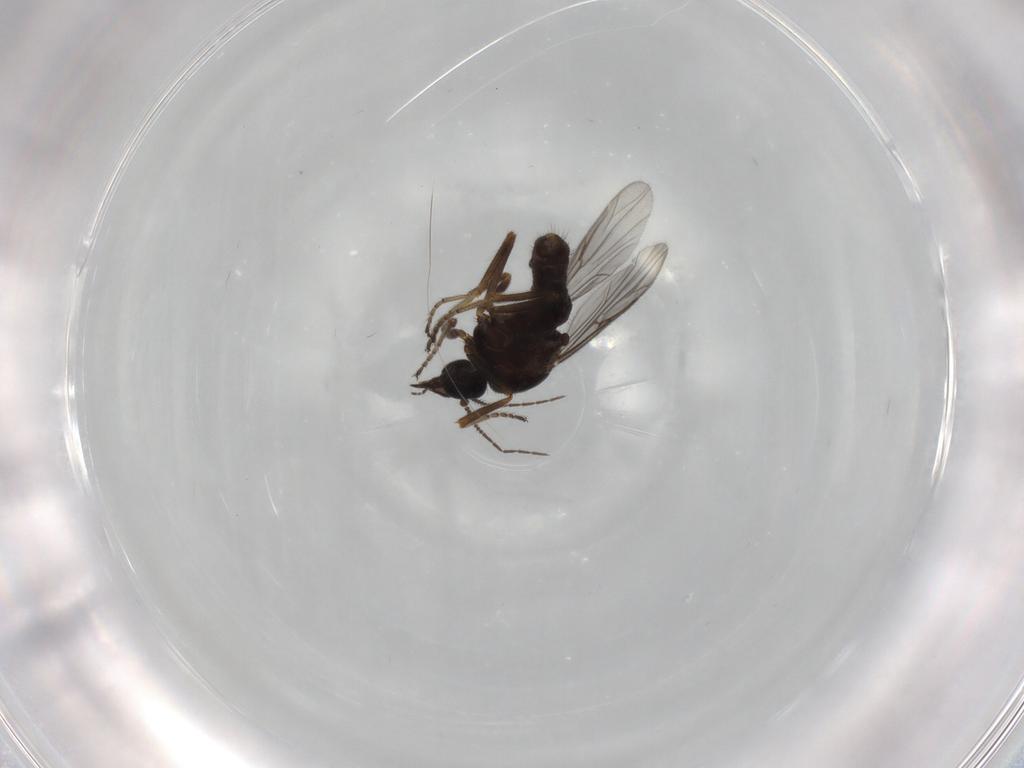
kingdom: Animalia
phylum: Arthropoda
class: Insecta
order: Diptera
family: Ceratopogonidae
